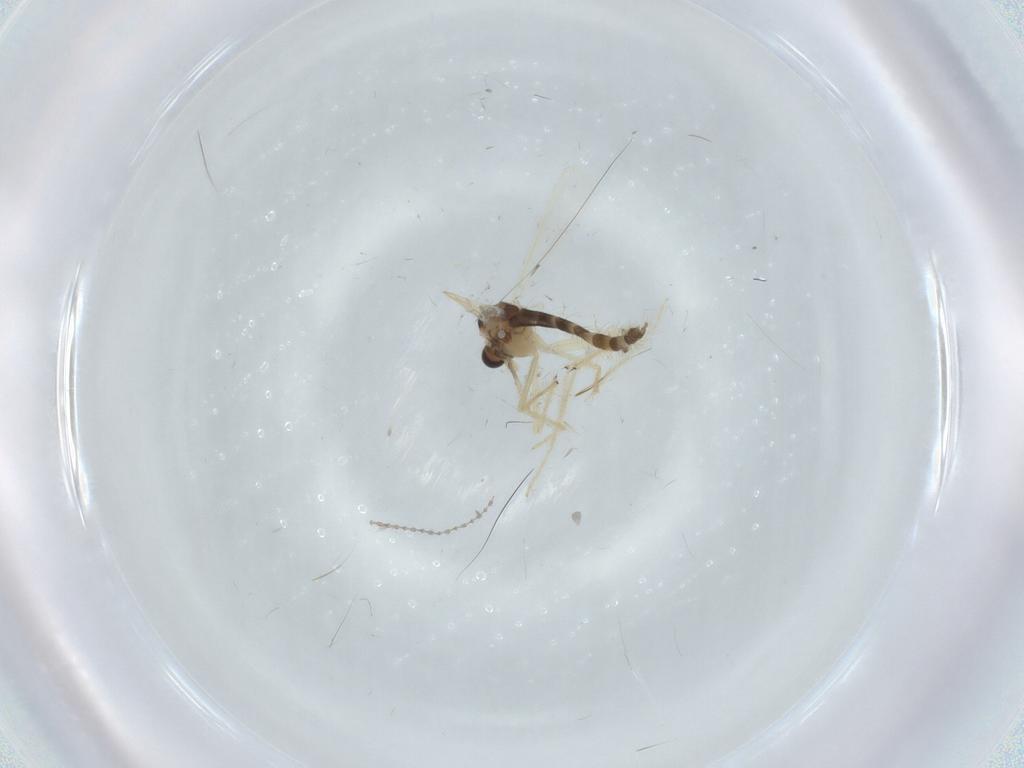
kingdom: Animalia
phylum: Arthropoda
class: Insecta
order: Diptera
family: Chironomidae
